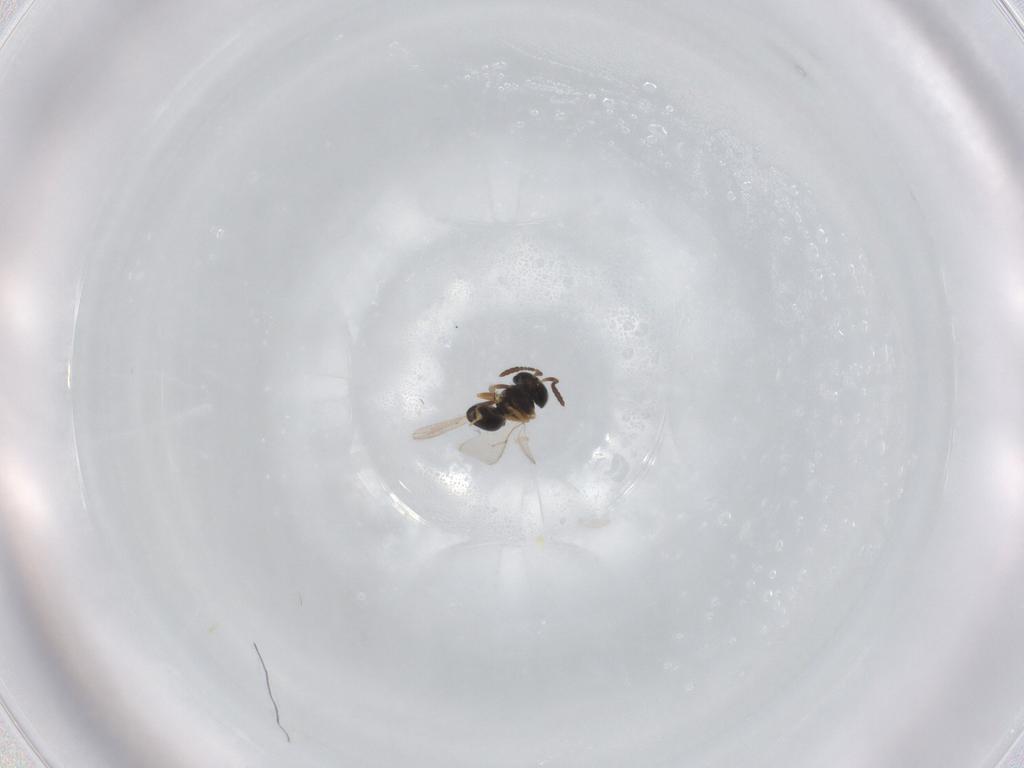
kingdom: Animalia
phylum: Arthropoda
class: Insecta
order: Hymenoptera
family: Scelionidae
